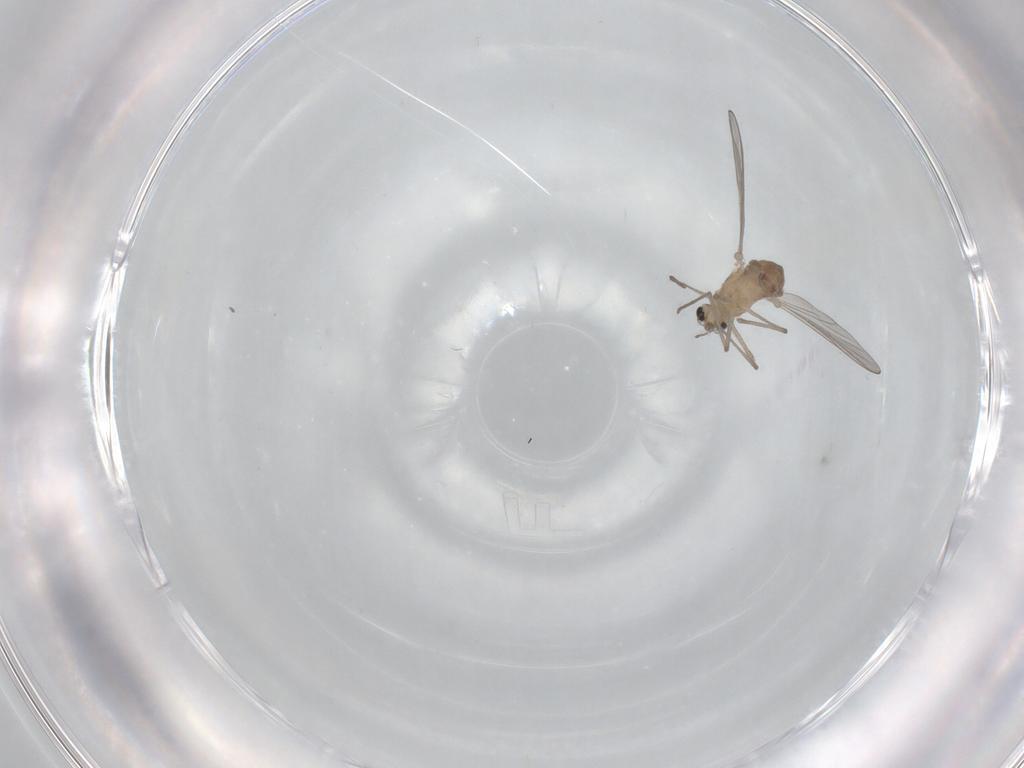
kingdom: Animalia
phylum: Arthropoda
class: Insecta
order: Diptera
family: Chironomidae
